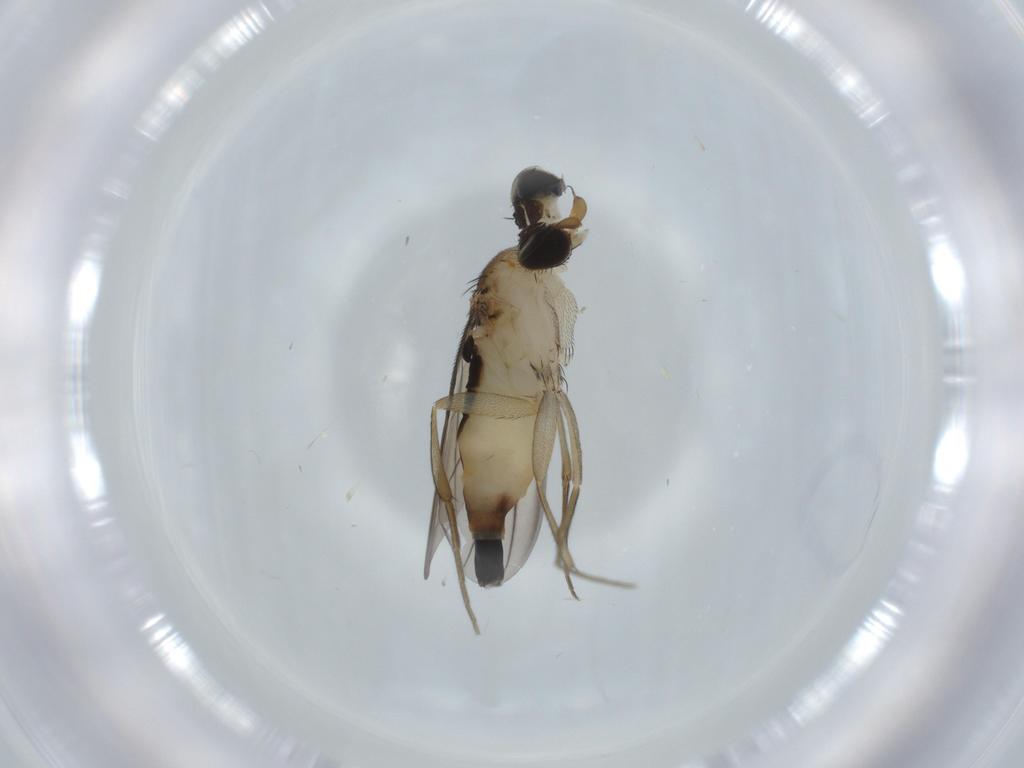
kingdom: Animalia
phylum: Arthropoda
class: Insecta
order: Diptera
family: Phoridae
